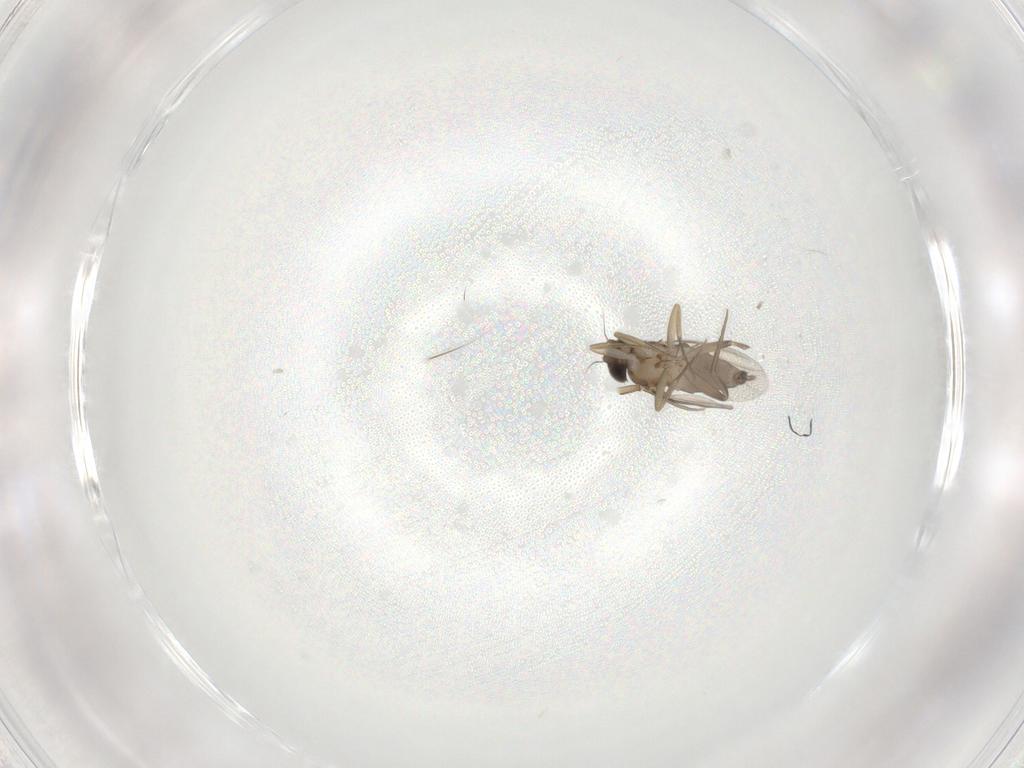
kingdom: Animalia
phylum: Arthropoda
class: Insecta
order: Diptera
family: Phoridae
